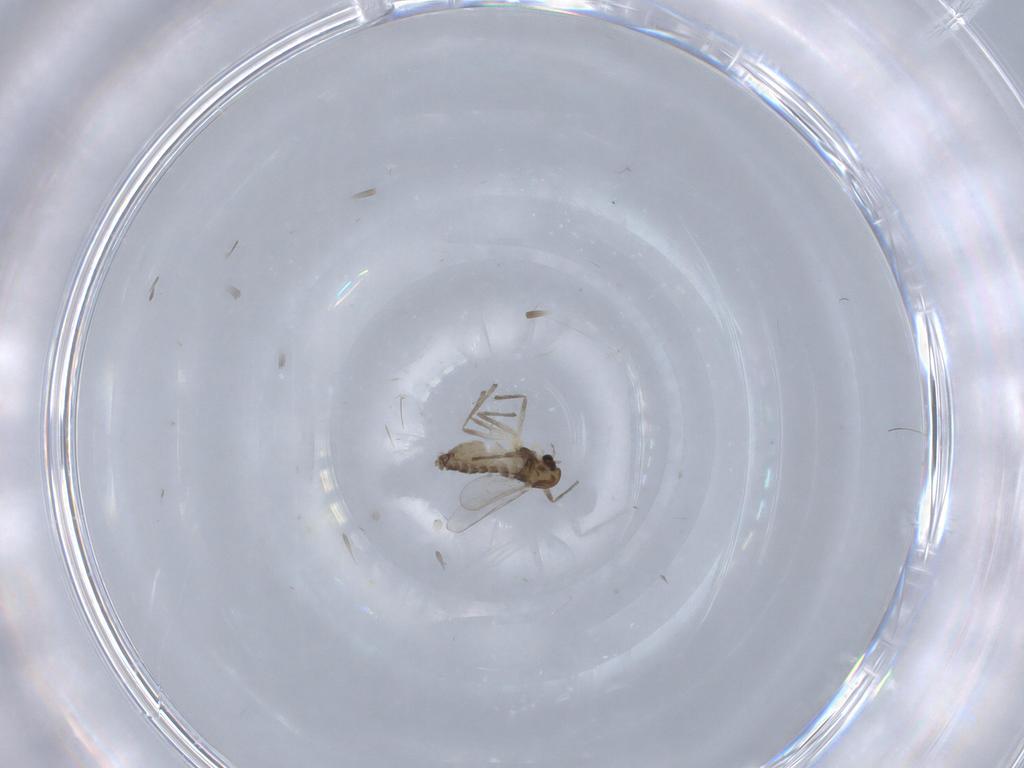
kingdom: Animalia
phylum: Arthropoda
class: Insecta
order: Diptera
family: Chironomidae
